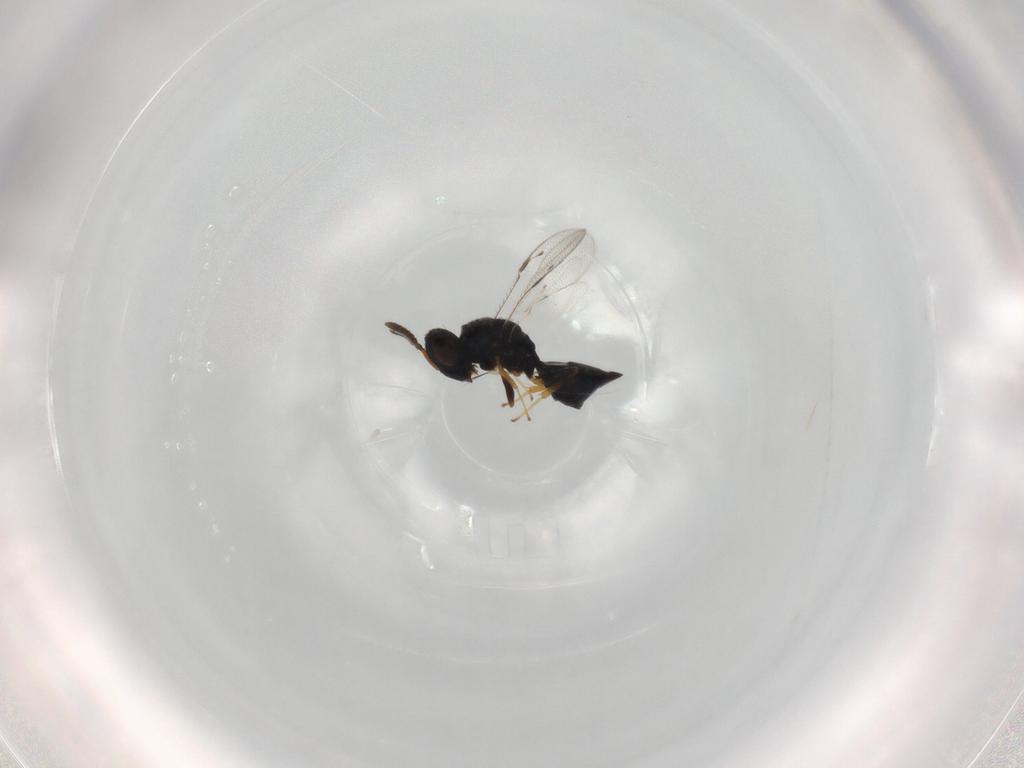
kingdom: Animalia
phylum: Arthropoda
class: Insecta
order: Hymenoptera
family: Pteromalidae
